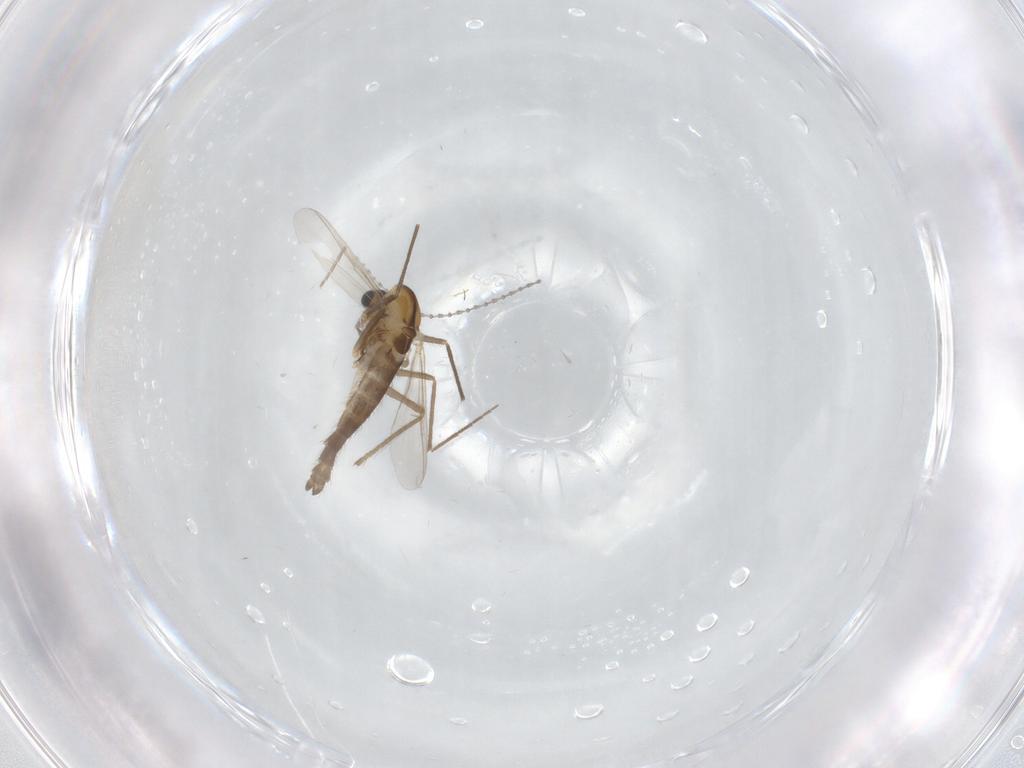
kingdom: Animalia
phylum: Arthropoda
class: Insecta
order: Diptera
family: Chironomidae
